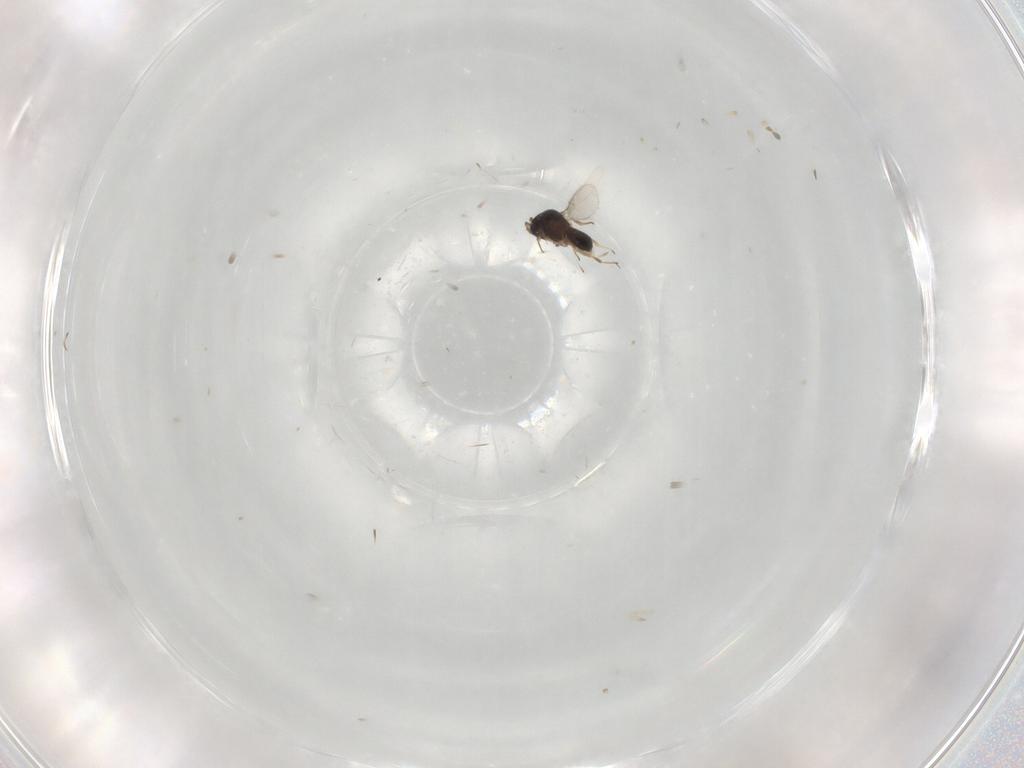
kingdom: Animalia
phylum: Arthropoda
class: Insecta
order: Hymenoptera
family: Scelionidae
